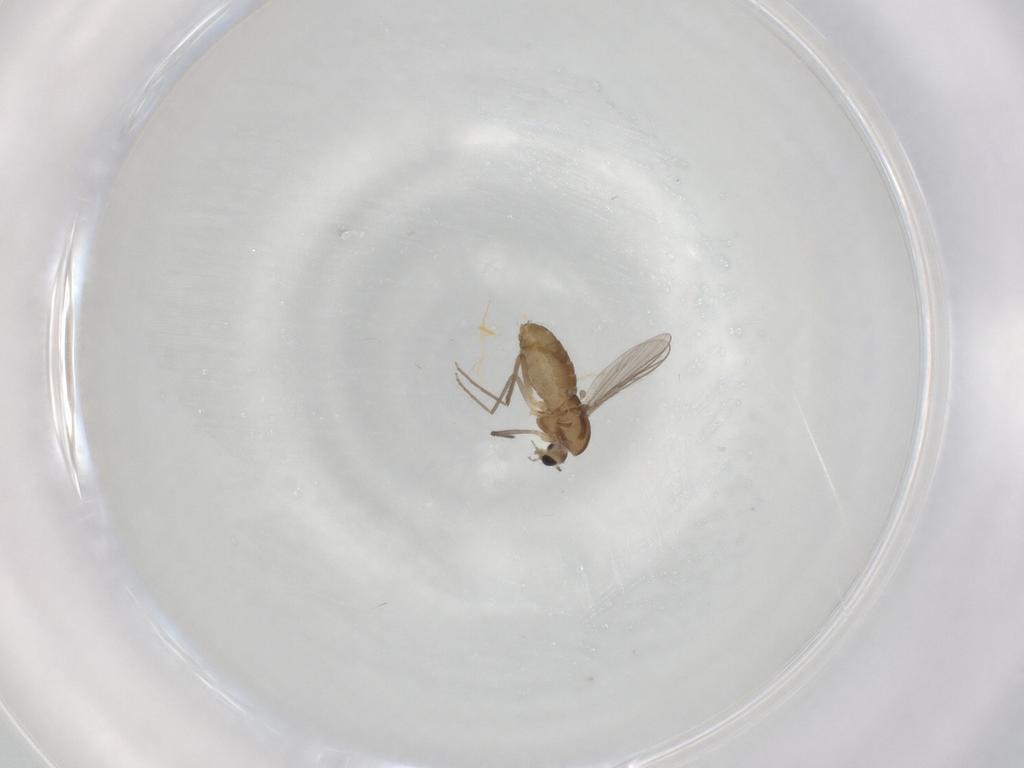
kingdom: Animalia
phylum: Arthropoda
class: Insecta
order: Diptera
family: Chironomidae
